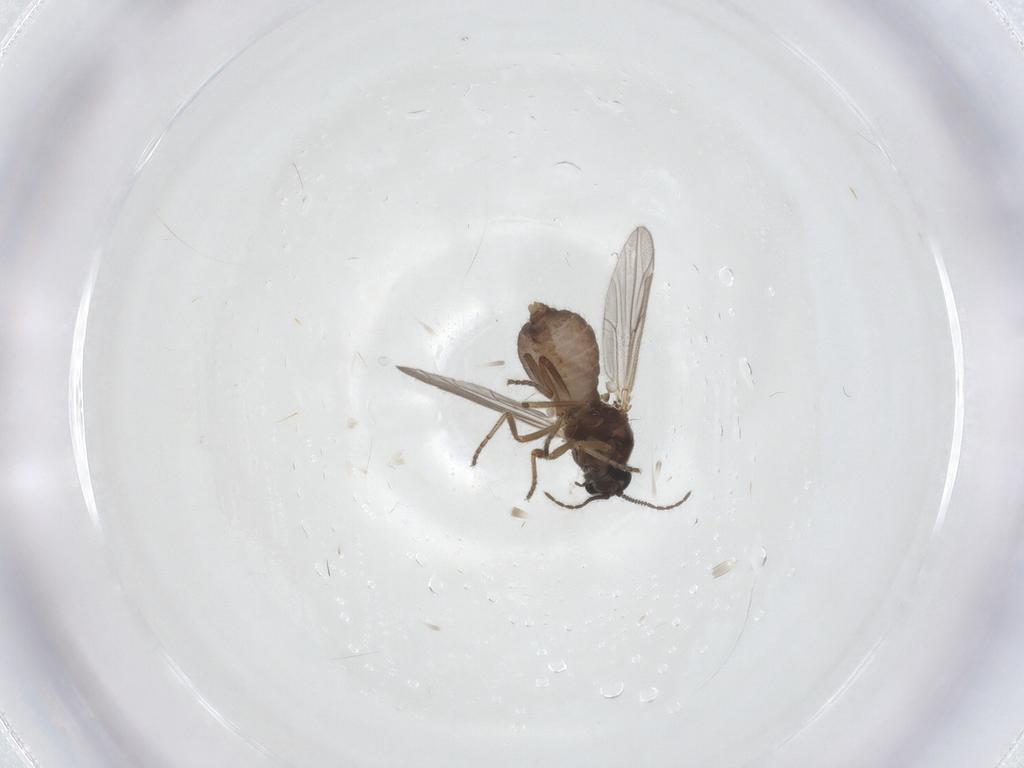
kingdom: Animalia
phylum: Arthropoda
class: Insecta
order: Diptera
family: Ceratopogonidae
